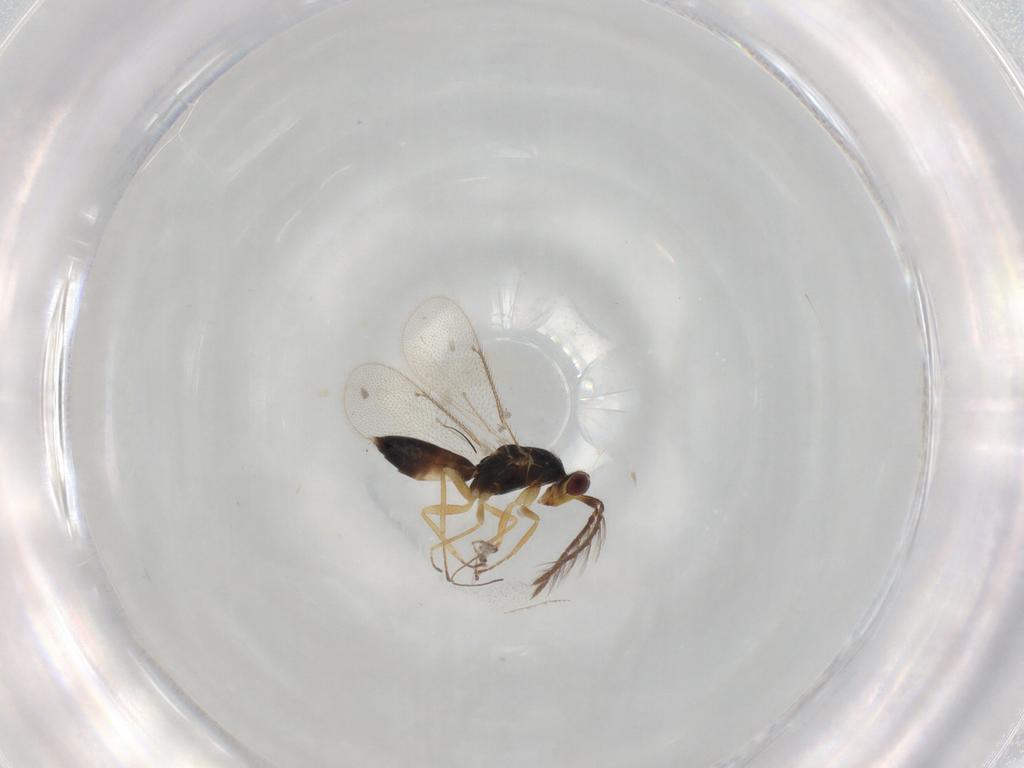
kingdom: Animalia
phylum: Arthropoda
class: Insecta
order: Hymenoptera
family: Eulophidae
